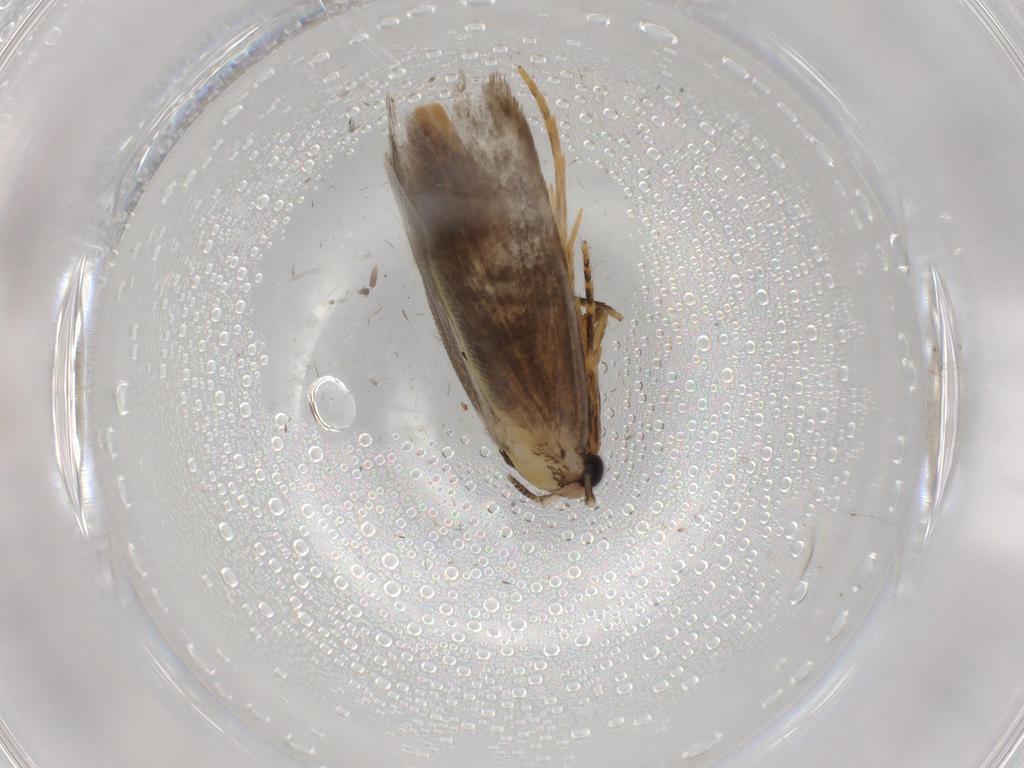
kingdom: Animalia
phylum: Arthropoda
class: Insecta
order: Lepidoptera
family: Tineidae
